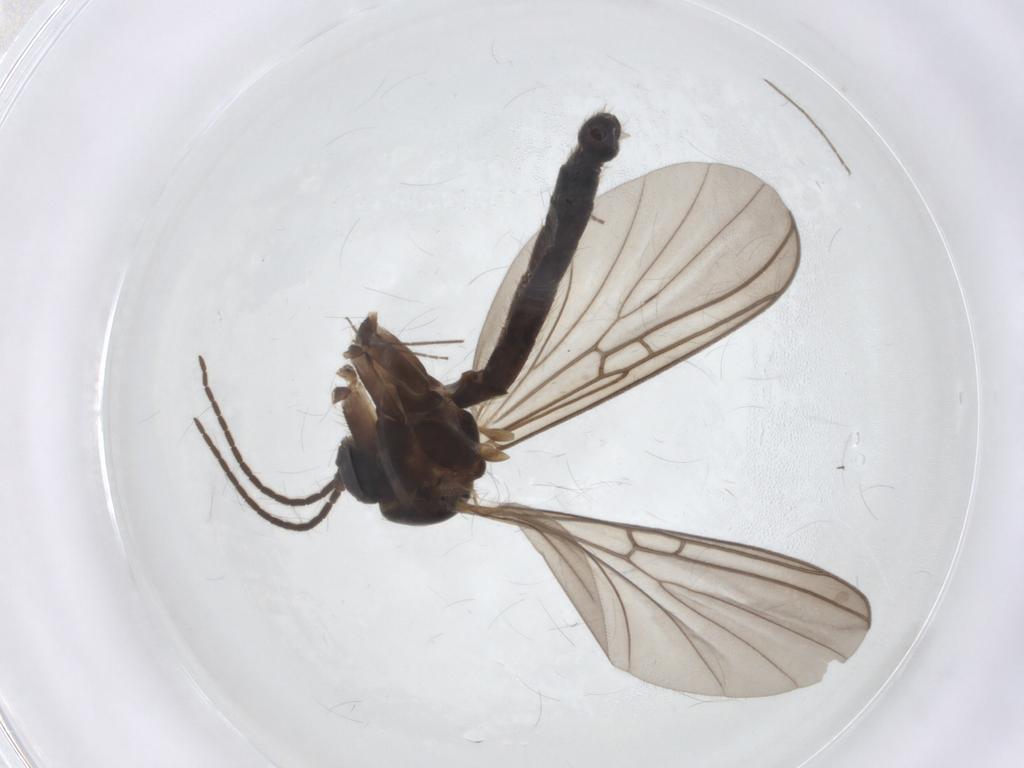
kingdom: Animalia
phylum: Arthropoda
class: Insecta
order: Diptera
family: Mycetophilidae
